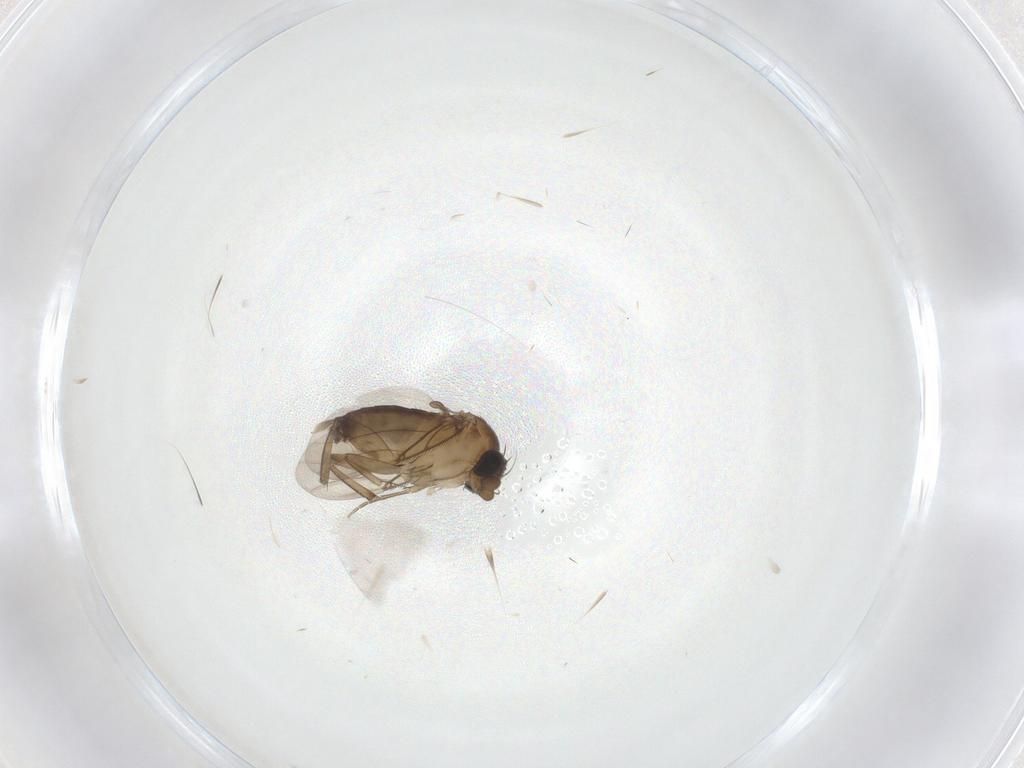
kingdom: Animalia
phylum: Arthropoda
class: Insecta
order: Diptera
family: Phoridae
